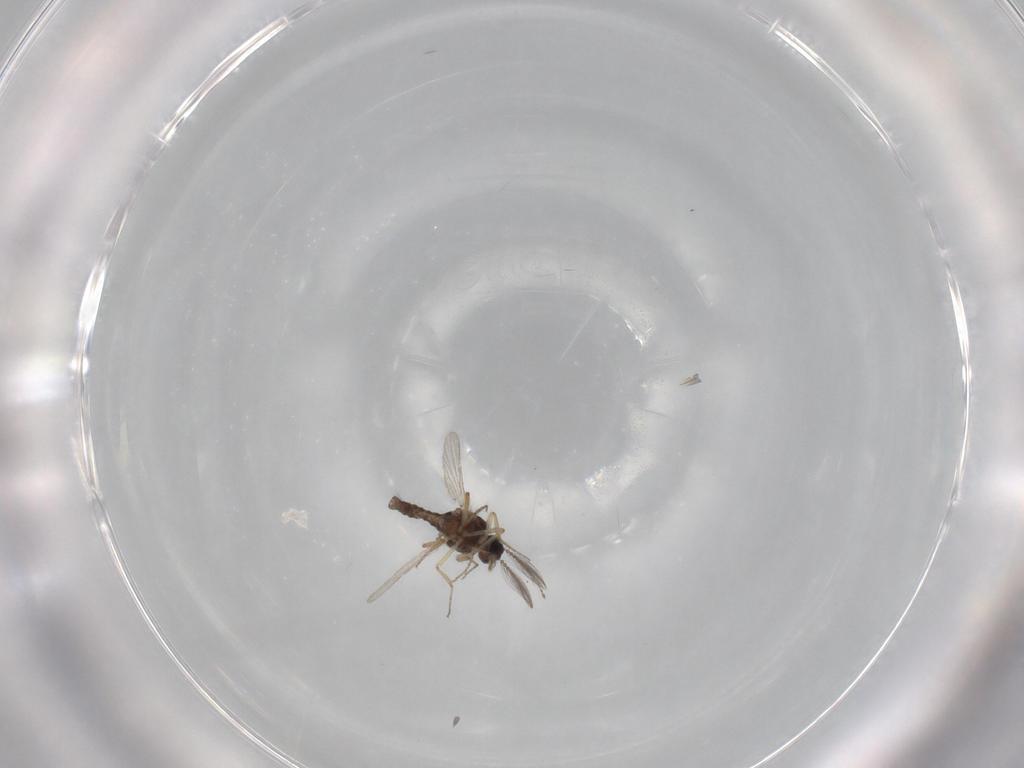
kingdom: Animalia
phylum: Arthropoda
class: Insecta
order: Diptera
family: Ceratopogonidae
